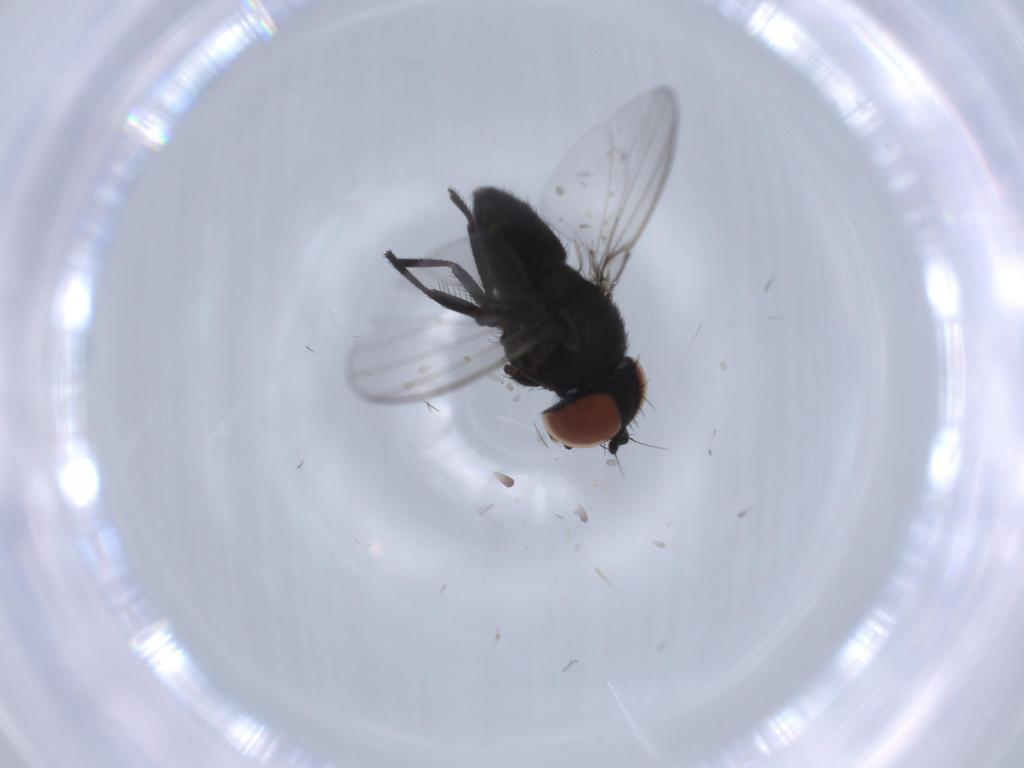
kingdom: Animalia
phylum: Arthropoda
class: Insecta
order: Diptera
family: Milichiidae
